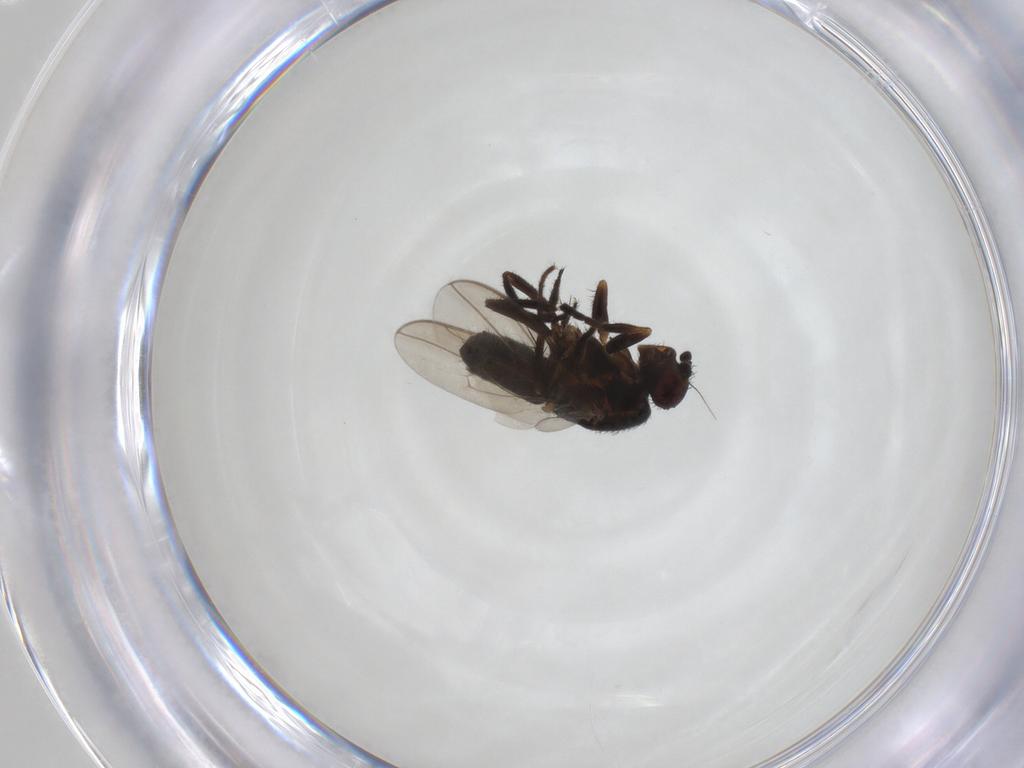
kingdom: Animalia
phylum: Arthropoda
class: Insecta
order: Diptera
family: Sphaeroceridae
